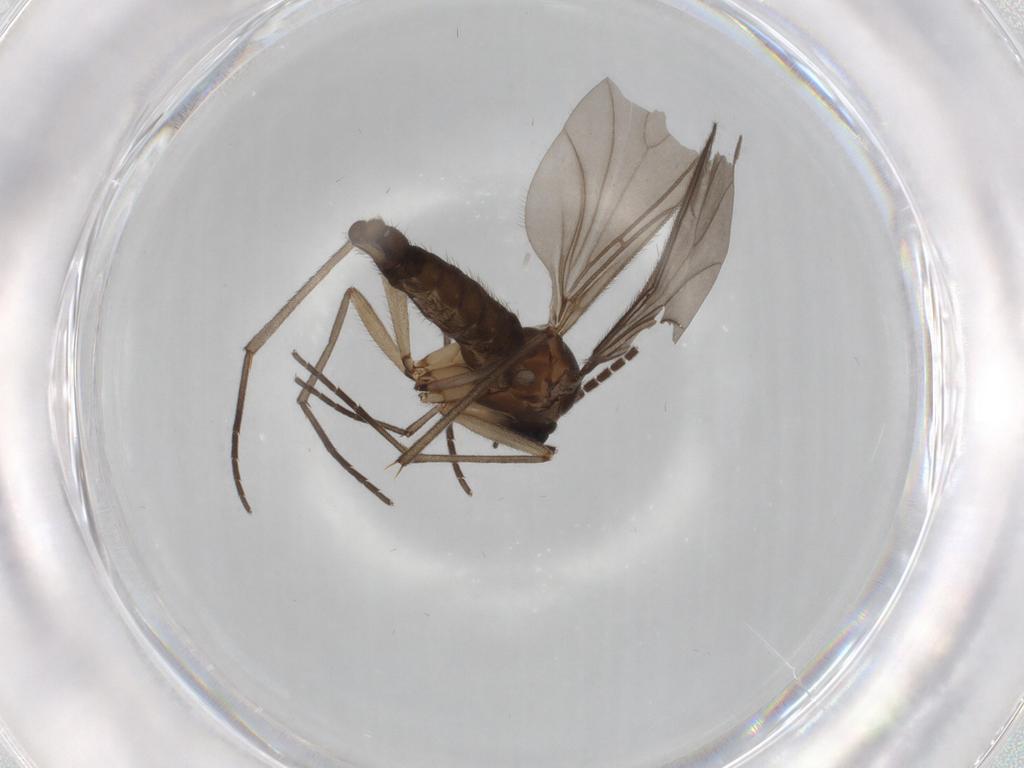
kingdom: Animalia
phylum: Arthropoda
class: Insecta
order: Diptera
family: Sciaridae
